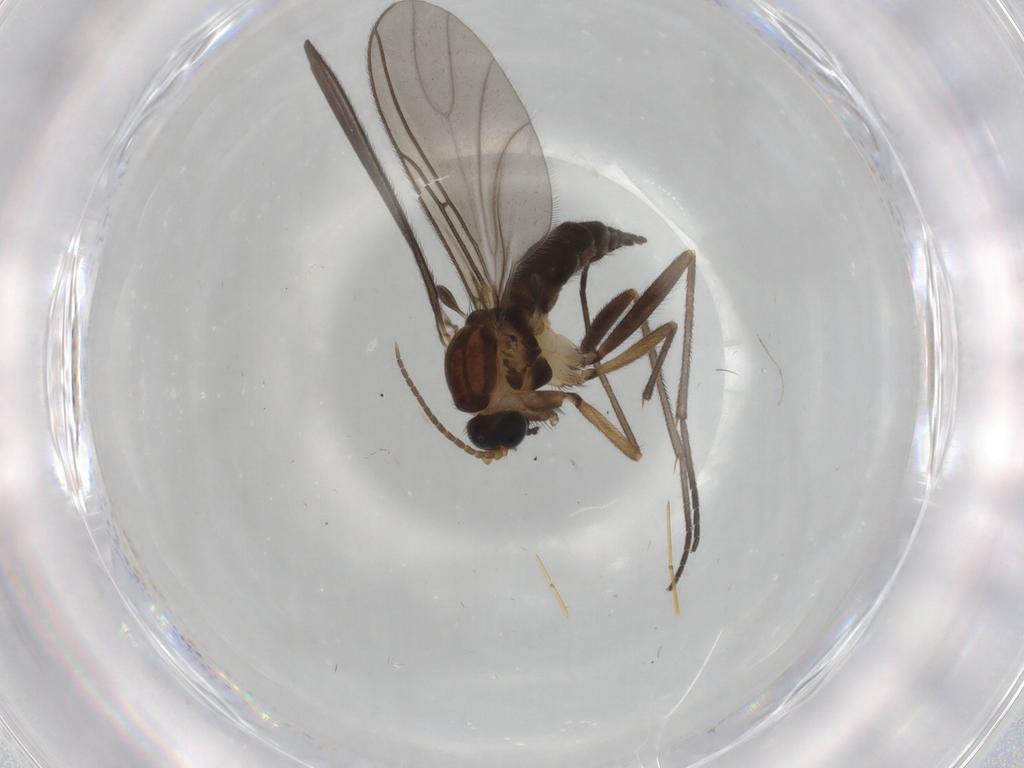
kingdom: Animalia
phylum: Arthropoda
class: Insecta
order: Diptera
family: Sciaridae
